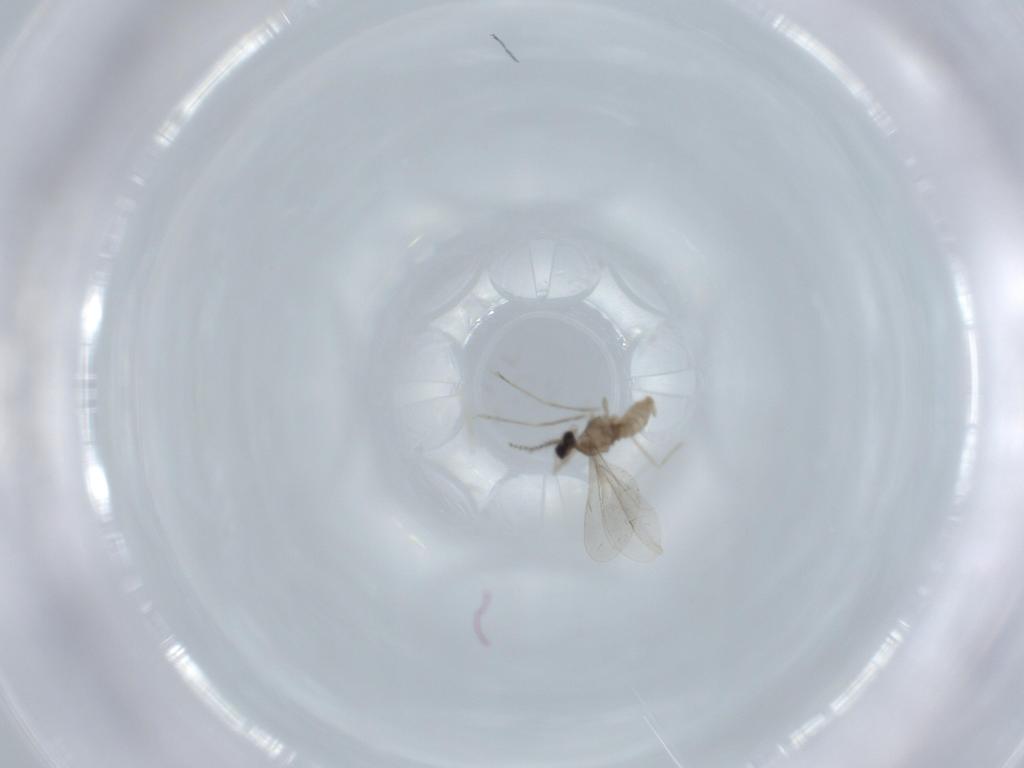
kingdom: Animalia
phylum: Arthropoda
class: Insecta
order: Diptera
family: Cecidomyiidae
